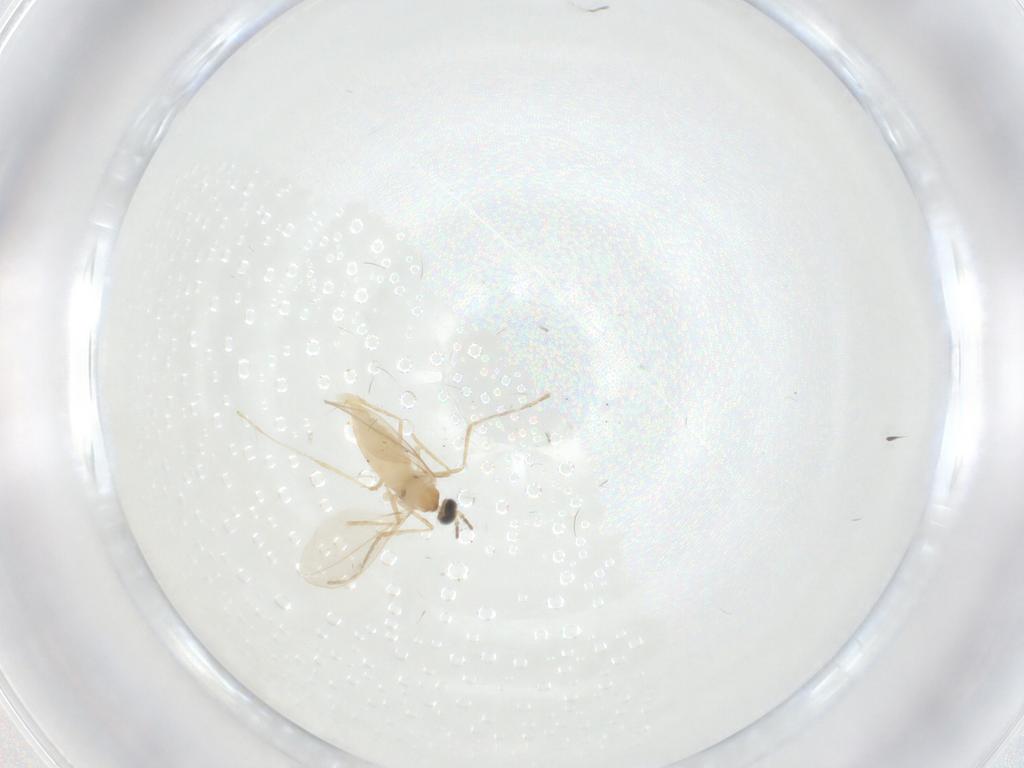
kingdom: Animalia
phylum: Arthropoda
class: Insecta
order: Diptera
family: Cecidomyiidae
